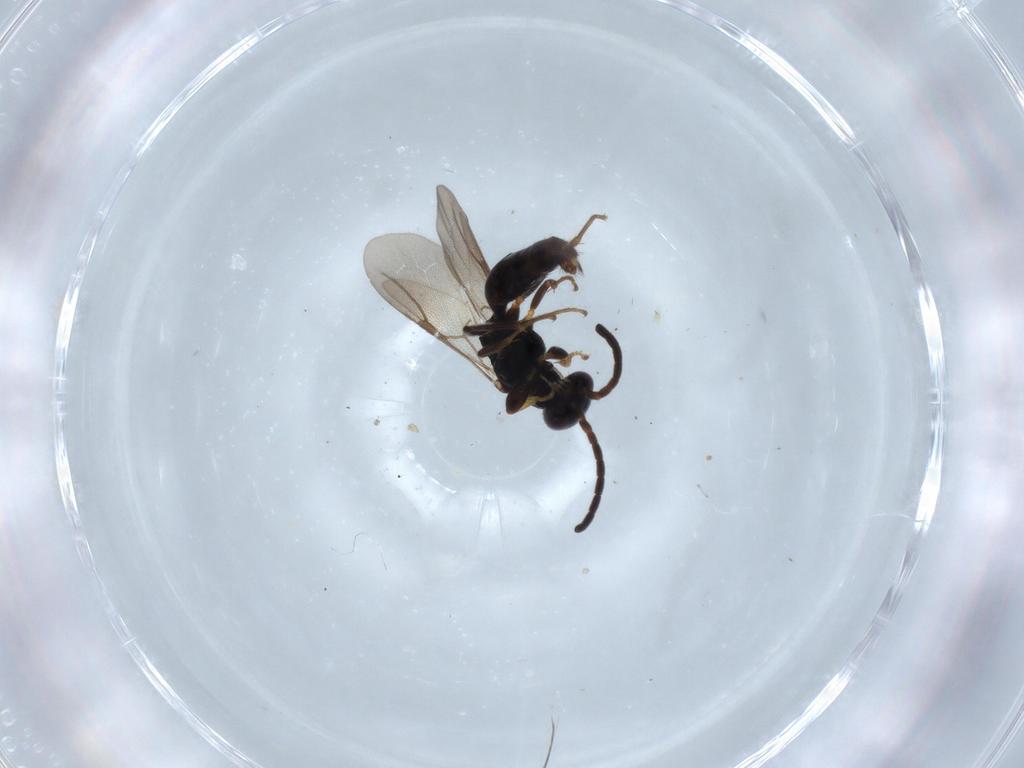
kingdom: Animalia
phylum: Arthropoda
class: Insecta
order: Hymenoptera
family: Bethylidae
